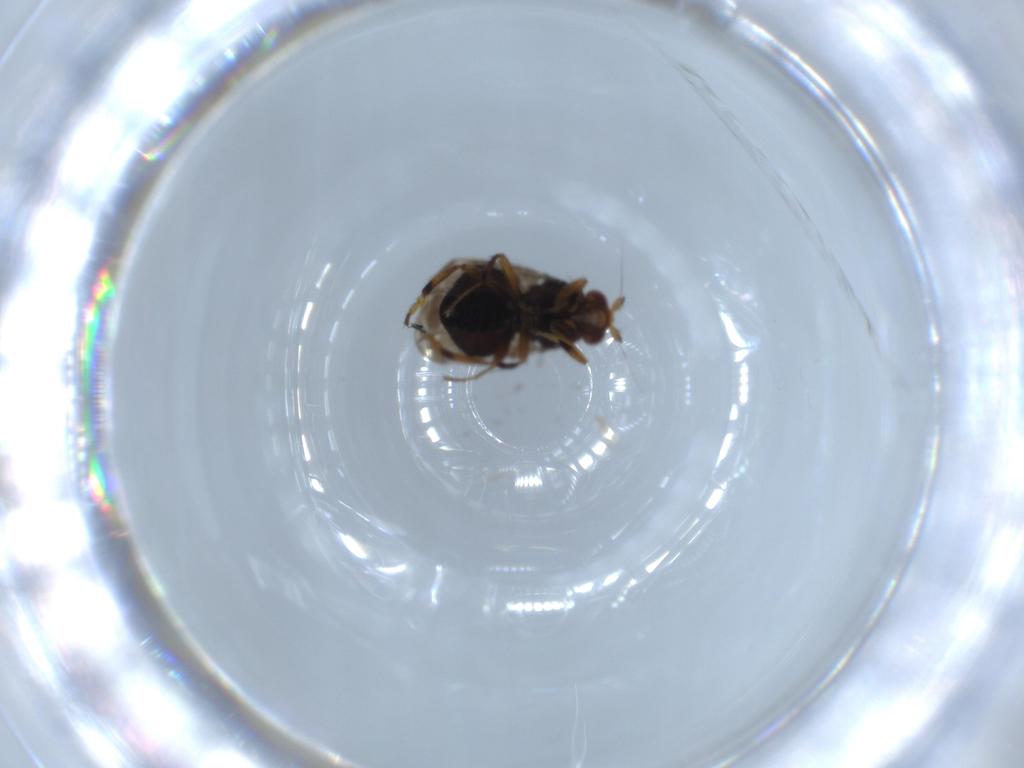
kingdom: Animalia
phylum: Arthropoda
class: Insecta
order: Diptera
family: Sphaeroceridae
